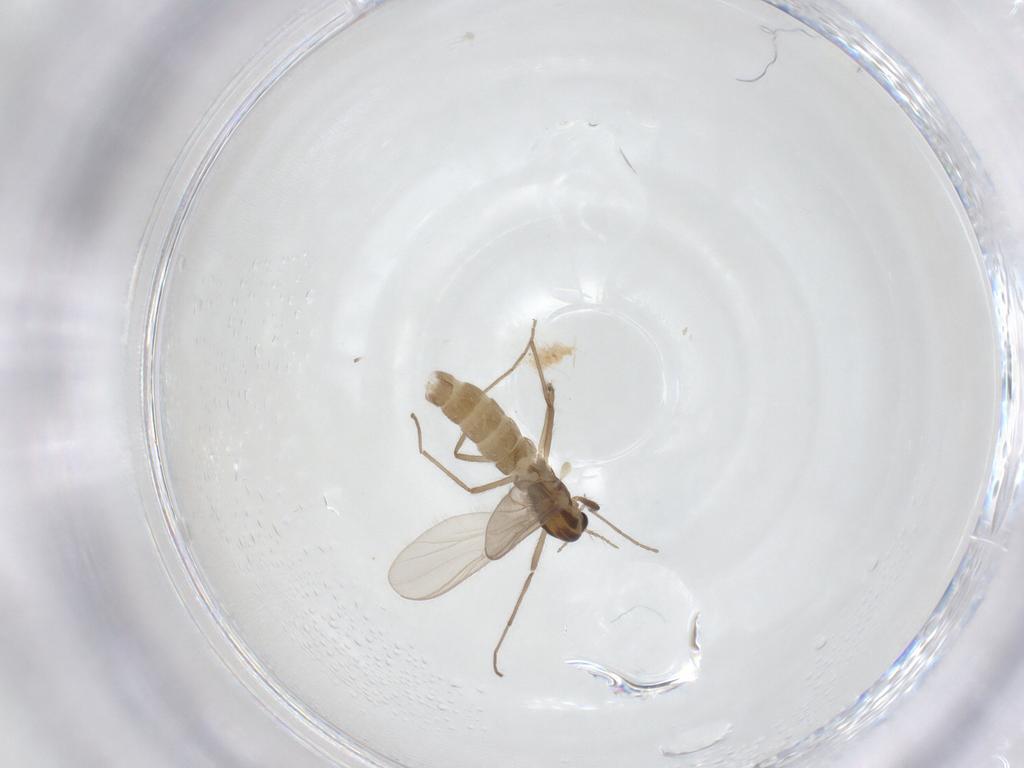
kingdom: Animalia
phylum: Arthropoda
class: Insecta
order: Diptera
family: Chironomidae
